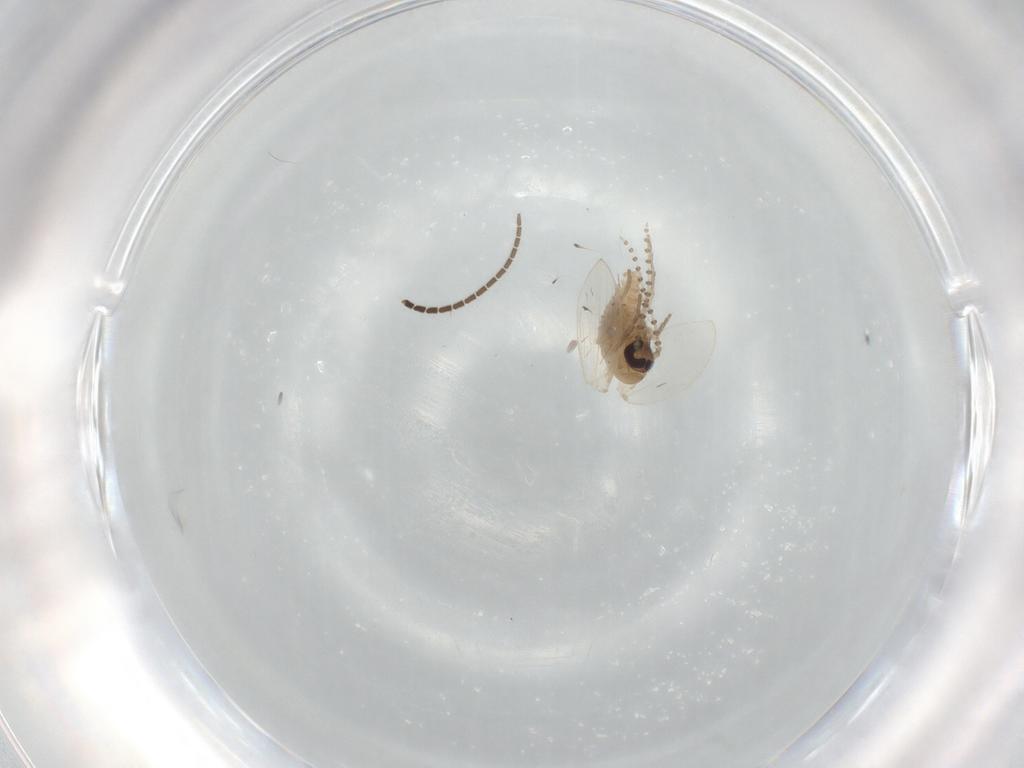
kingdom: Animalia
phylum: Arthropoda
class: Insecta
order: Diptera
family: Psychodidae
